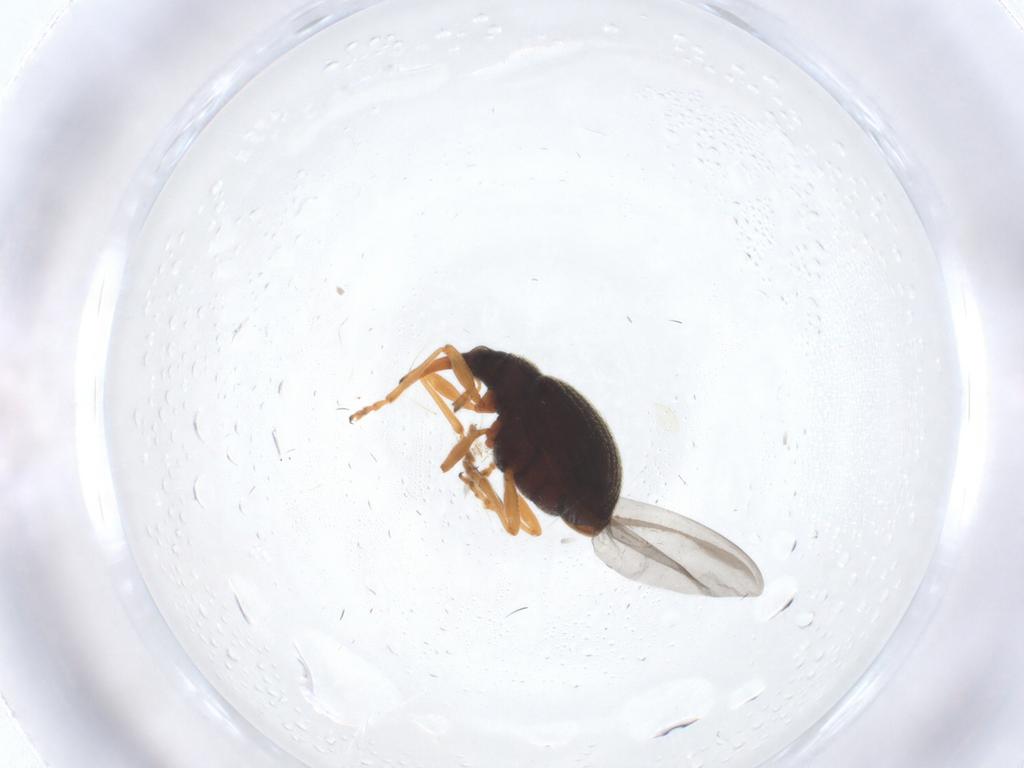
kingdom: Animalia
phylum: Arthropoda
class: Insecta
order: Coleoptera
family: Brentidae
